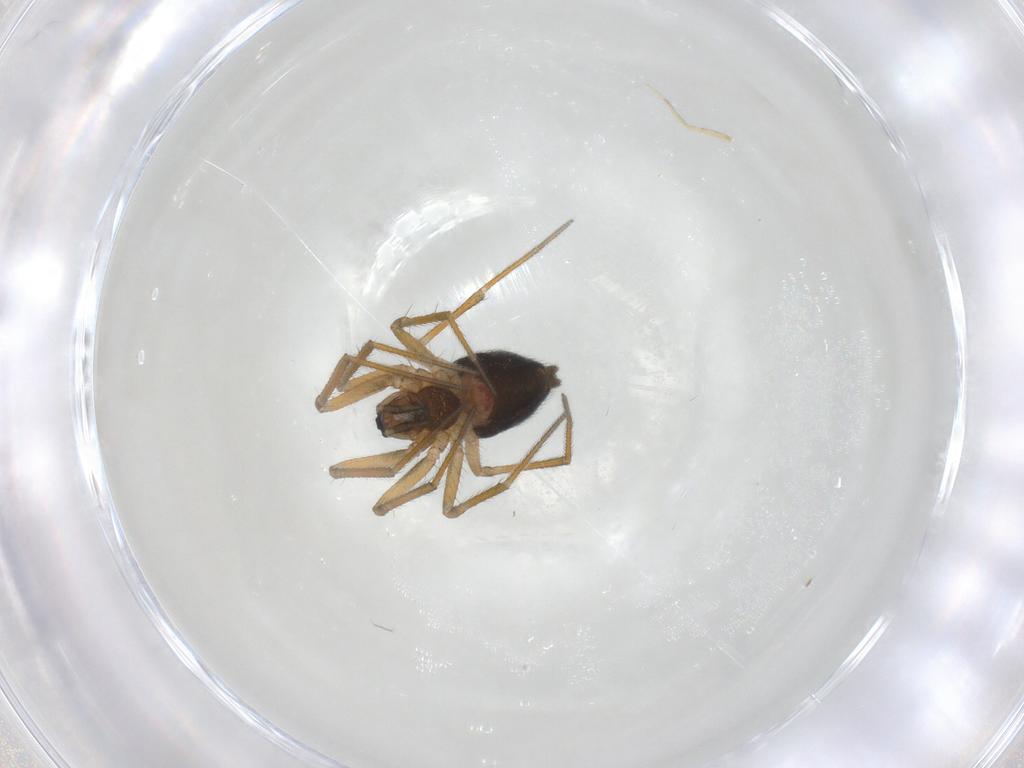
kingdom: Animalia
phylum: Arthropoda
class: Arachnida
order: Araneae
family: Linyphiidae
